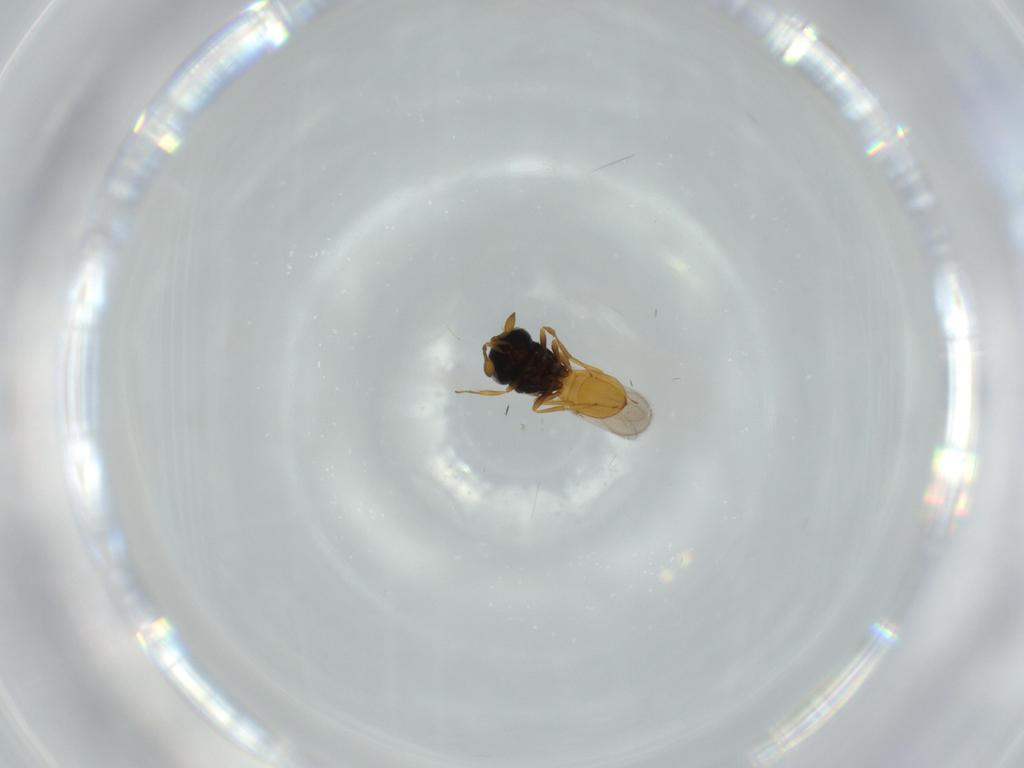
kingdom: Animalia
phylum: Arthropoda
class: Insecta
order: Hymenoptera
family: Scelionidae
